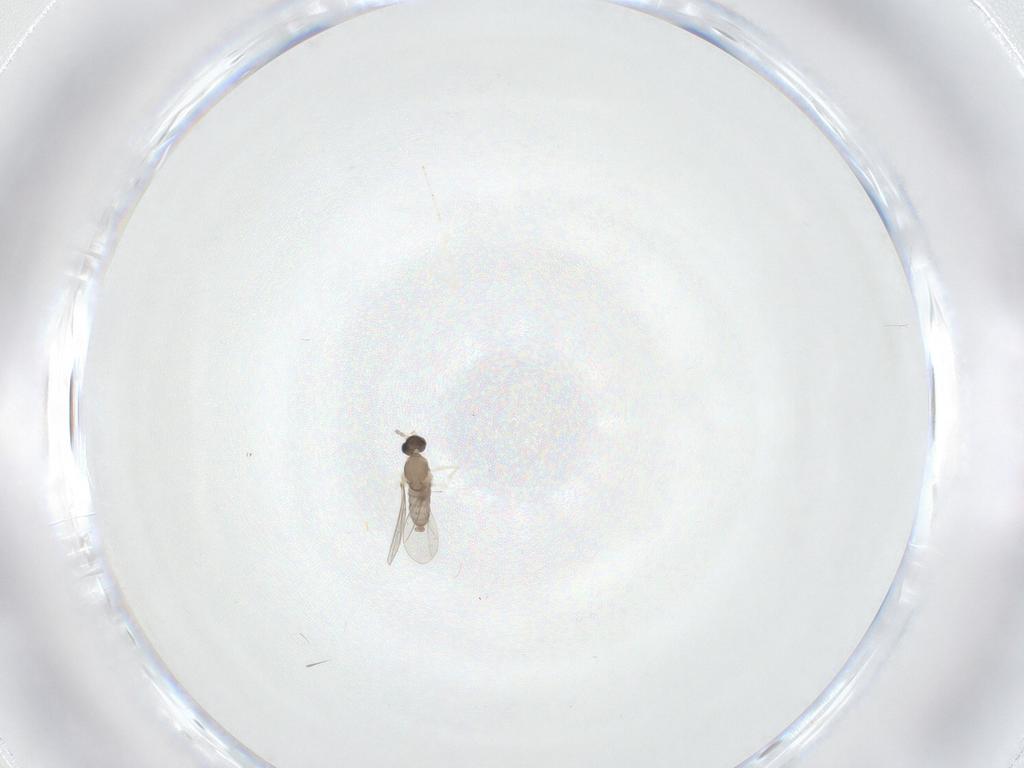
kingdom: Animalia
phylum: Arthropoda
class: Insecta
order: Diptera
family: Cecidomyiidae
